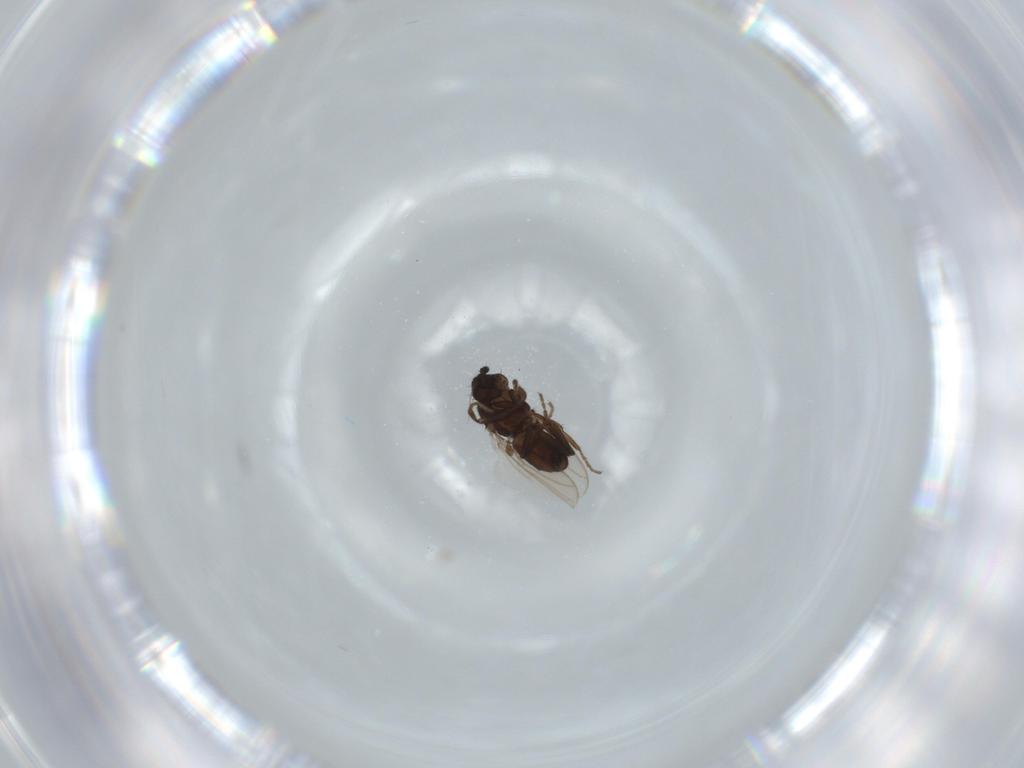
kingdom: Animalia
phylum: Arthropoda
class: Insecta
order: Diptera
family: Sphaeroceridae
